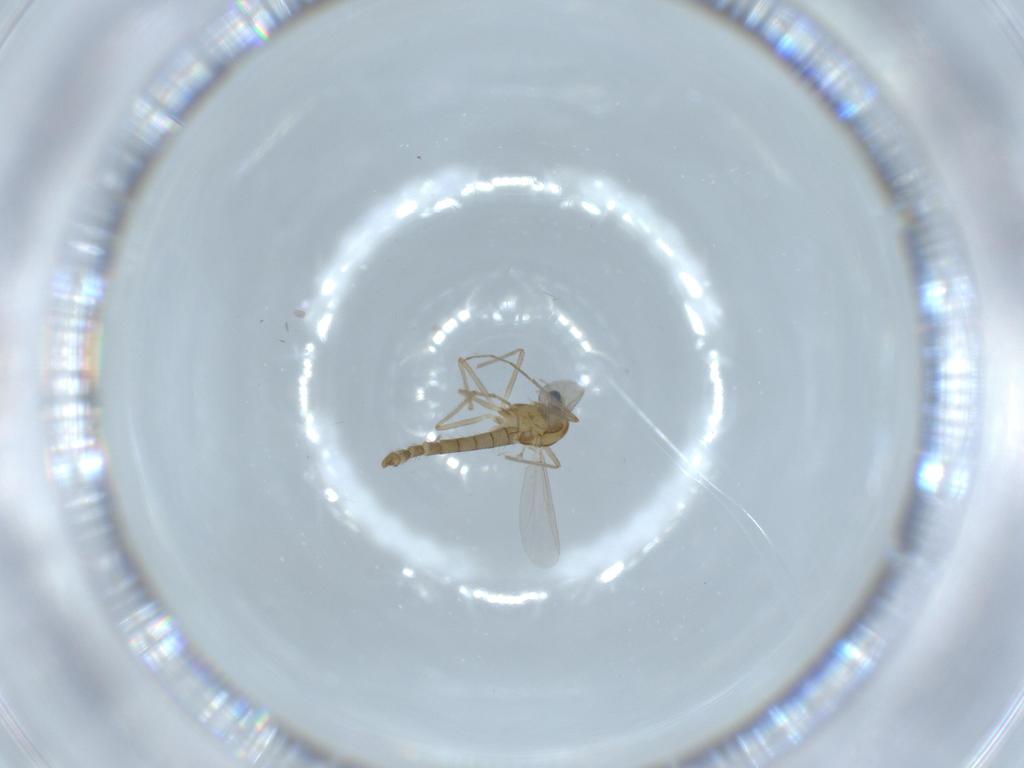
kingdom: Animalia
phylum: Arthropoda
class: Insecta
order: Diptera
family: Chironomidae
